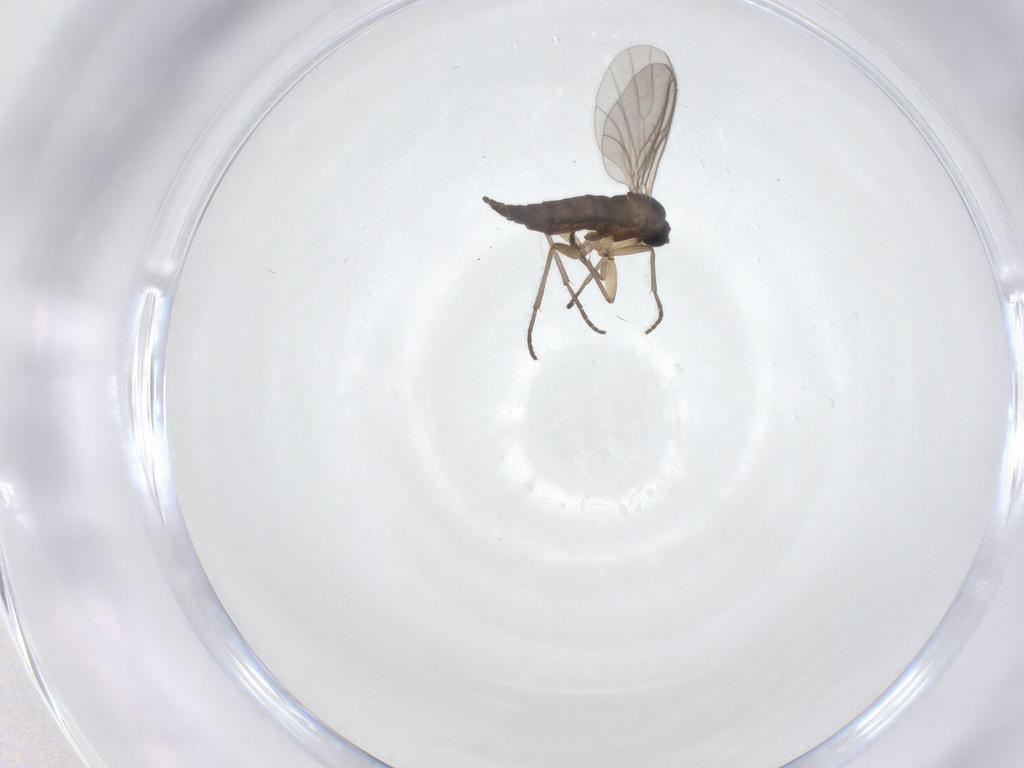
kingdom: Animalia
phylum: Arthropoda
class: Insecta
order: Diptera
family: Sciaridae
